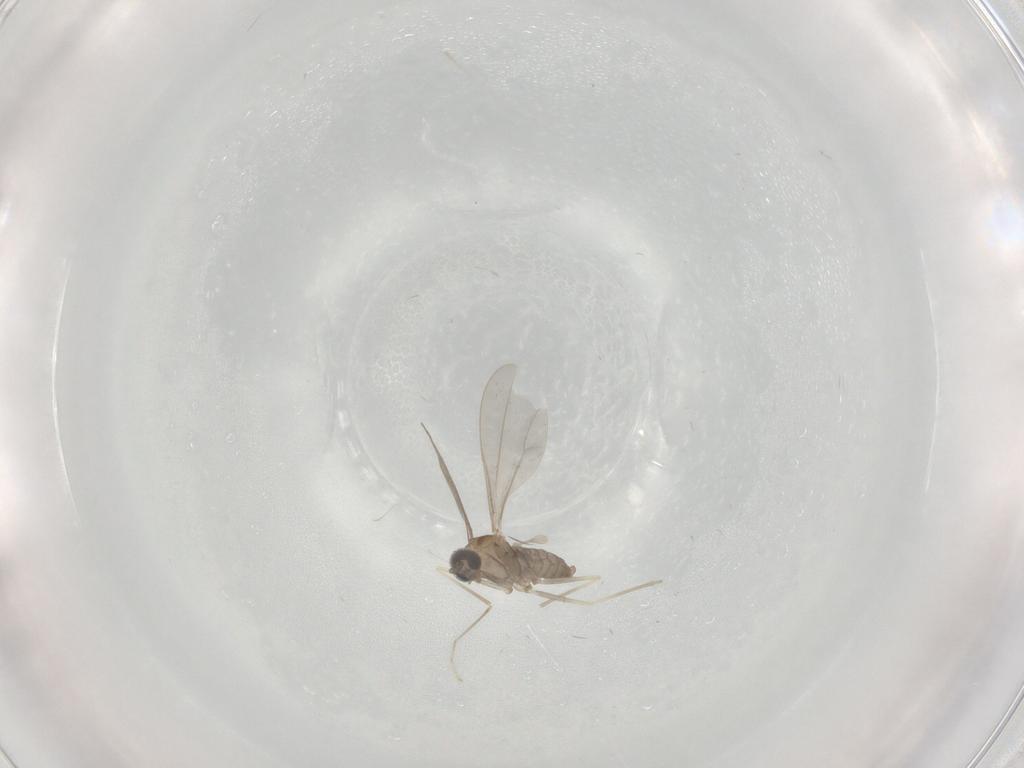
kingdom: Animalia
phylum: Arthropoda
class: Insecta
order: Diptera
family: Cecidomyiidae
